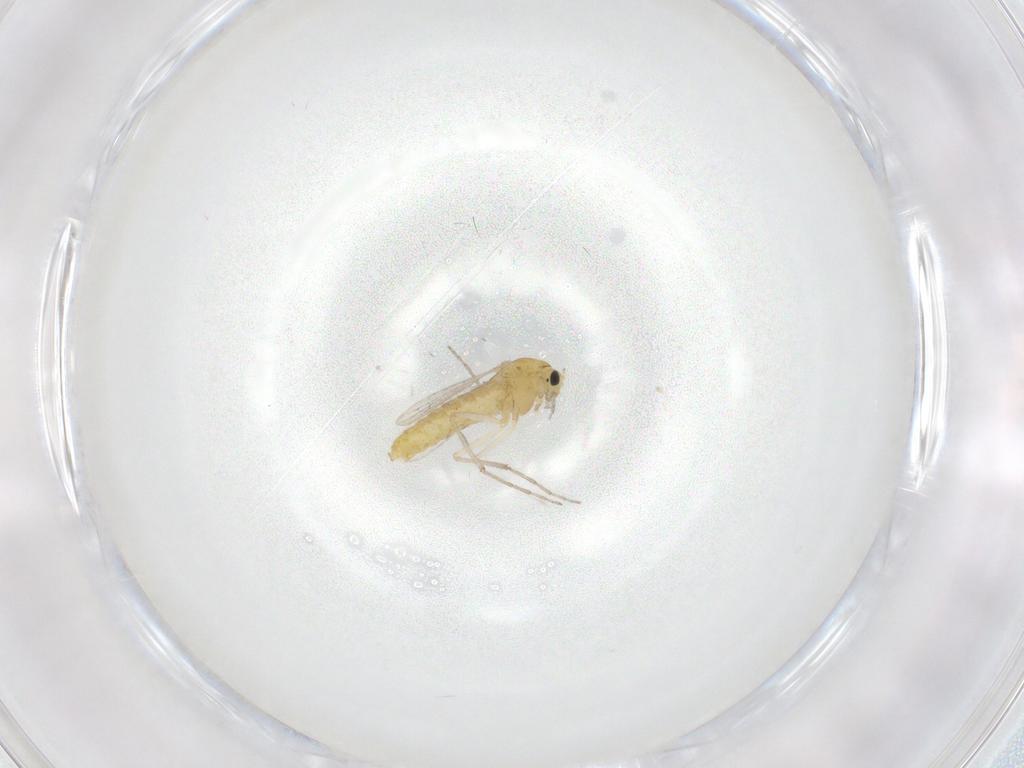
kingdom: Animalia
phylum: Arthropoda
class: Insecta
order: Diptera
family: Chironomidae
